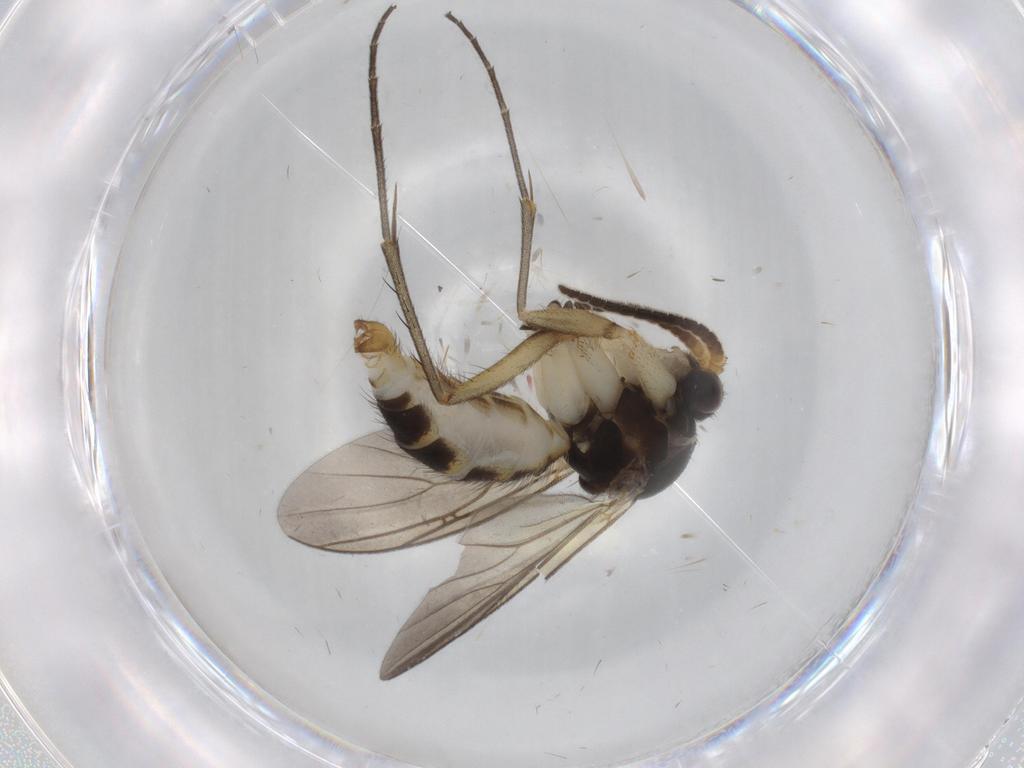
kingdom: Animalia
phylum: Arthropoda
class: Insecta
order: Diptera
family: Sciaridae
